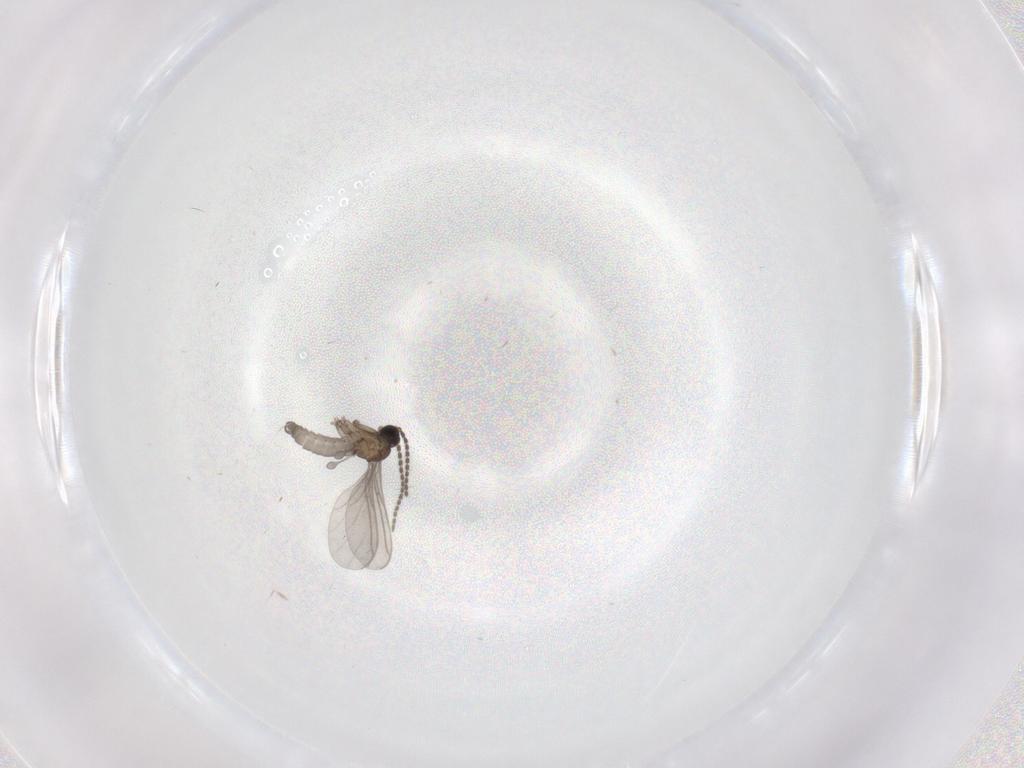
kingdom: Animalia
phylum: Arthropoda
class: Insecta
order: Diptera
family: Sciaridae
